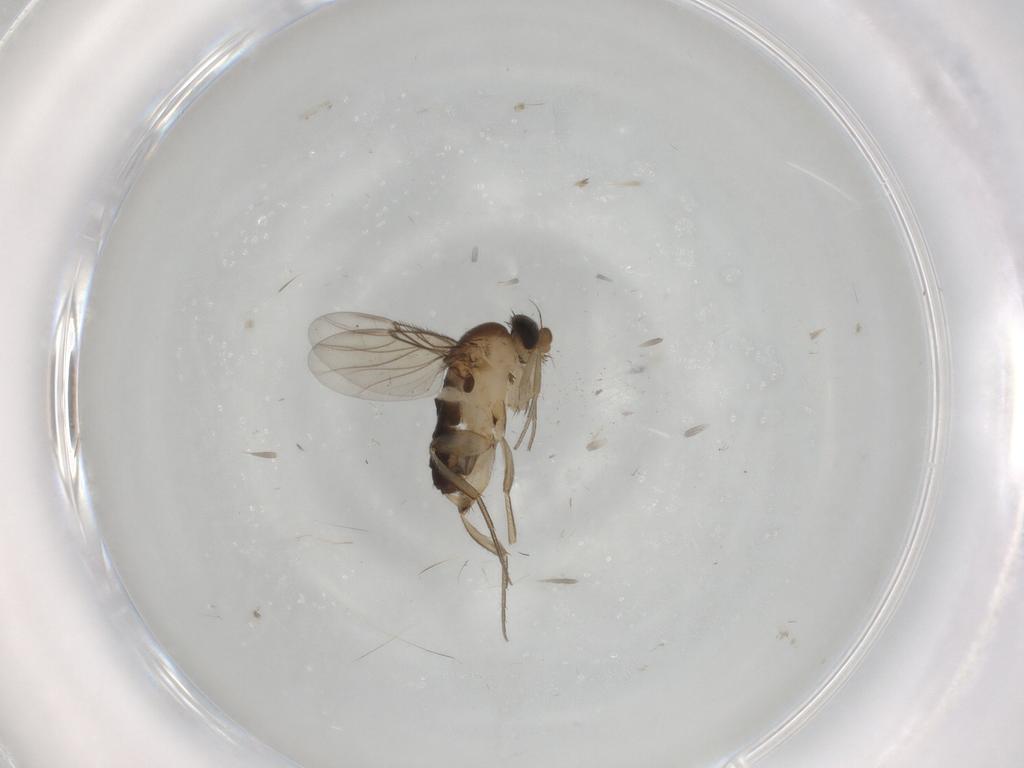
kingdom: Animalia
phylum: Arthropoda
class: Insecta
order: Diptera
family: Phoridae
